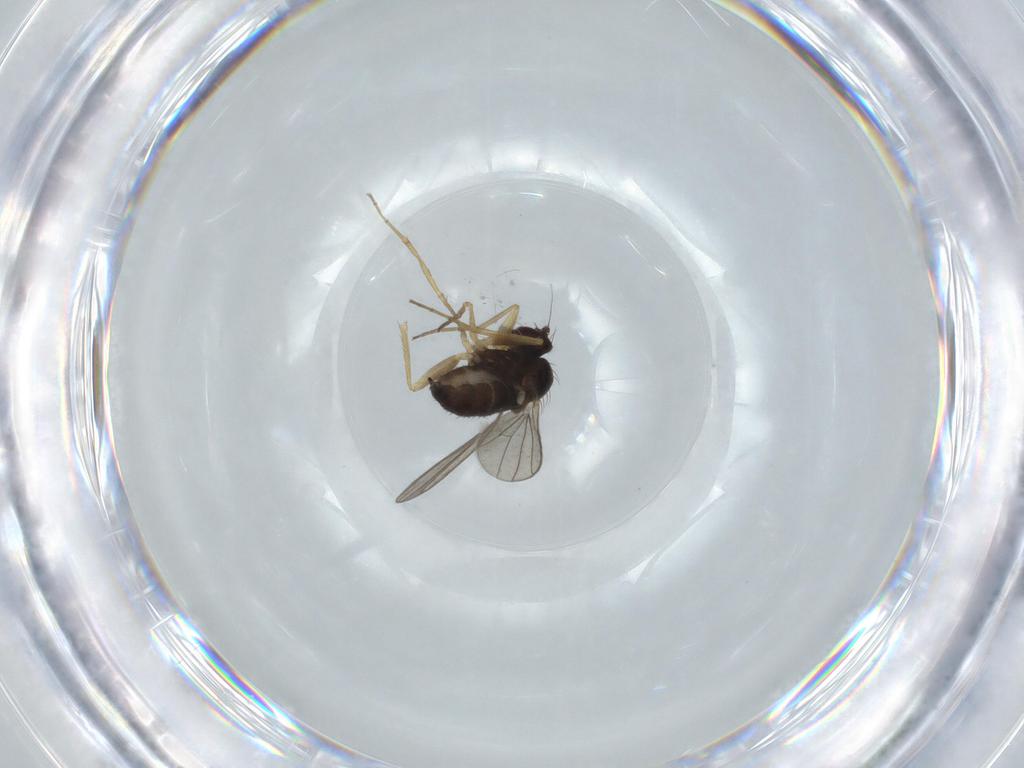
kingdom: Animalia
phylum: Arthropoda
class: Insecta
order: Diptera
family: Dolichopodidae
